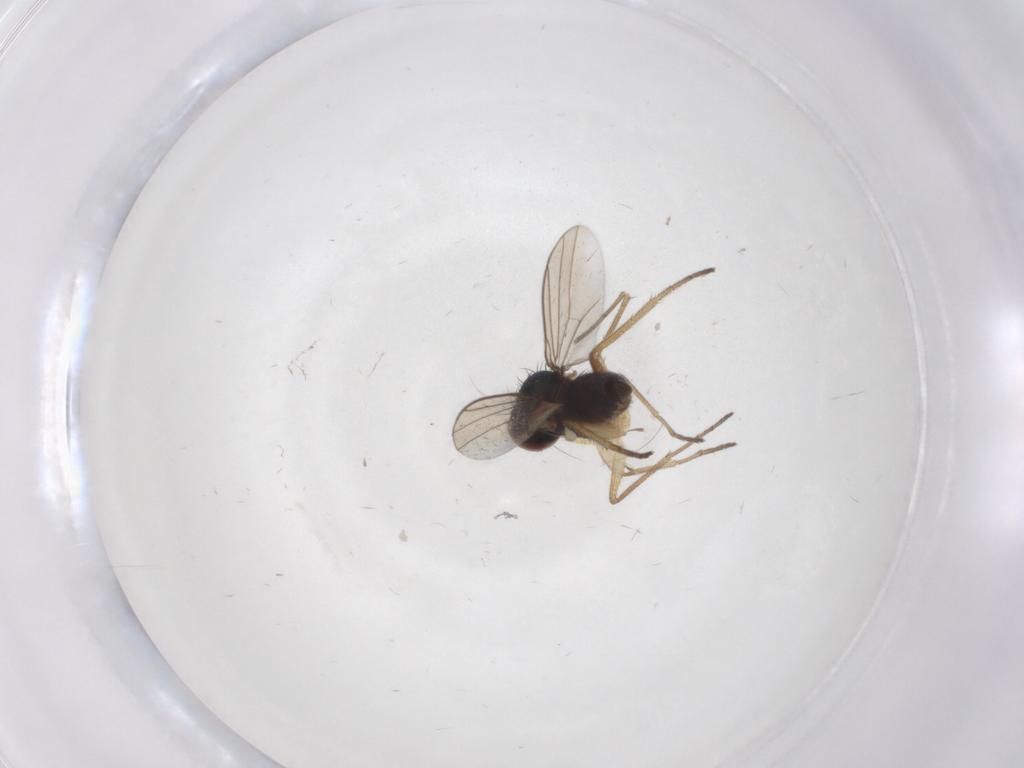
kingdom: Animalia
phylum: Arthropoda
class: Insecta
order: Diptera
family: Dolichopodidae
